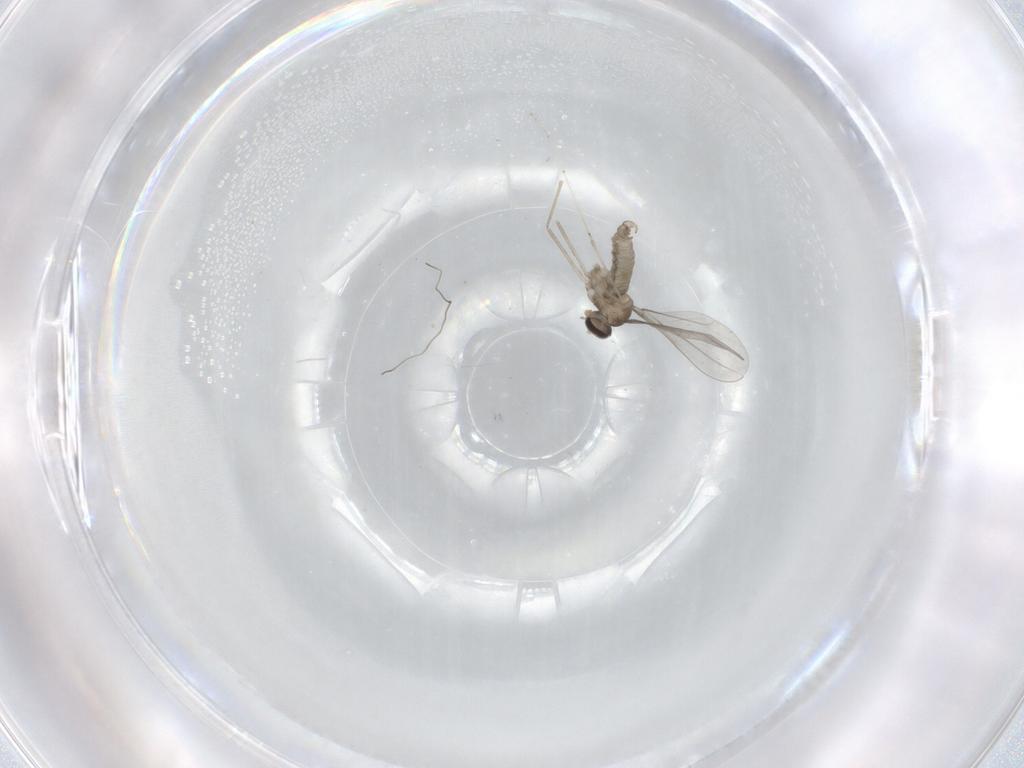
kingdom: Animalia
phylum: Arthropoda
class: Insecta
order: Diptera
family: Cecidomyiidae
